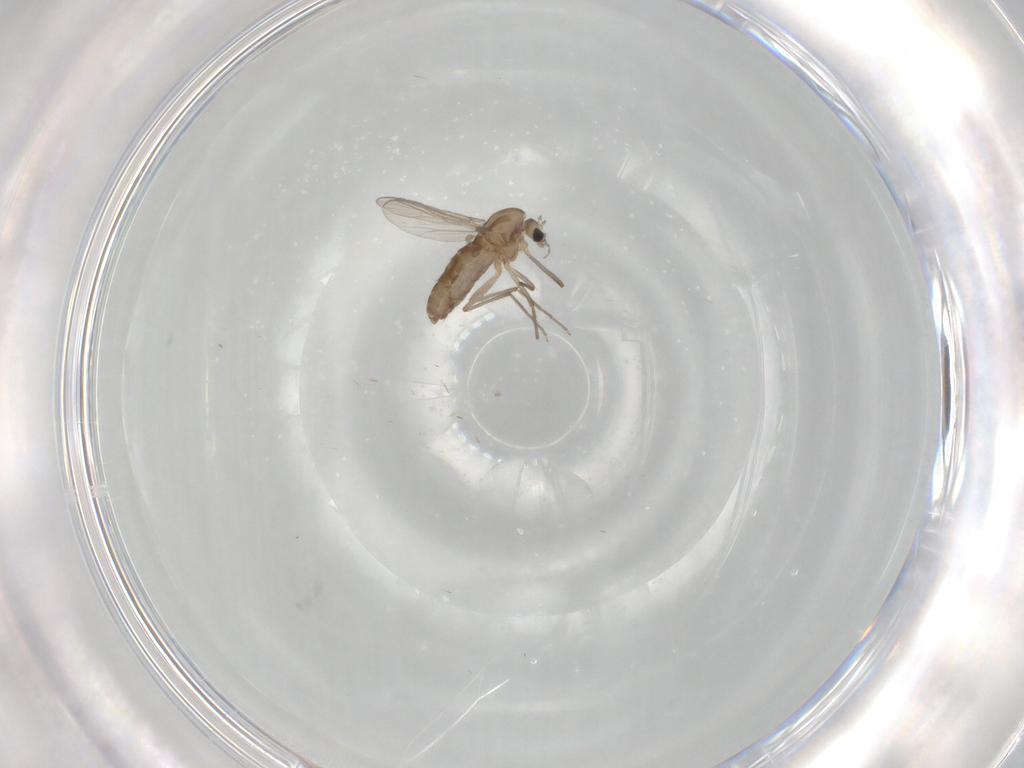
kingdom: Animalia
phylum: Arthropoda
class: Insecta
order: Diptera
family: Chironomidae
